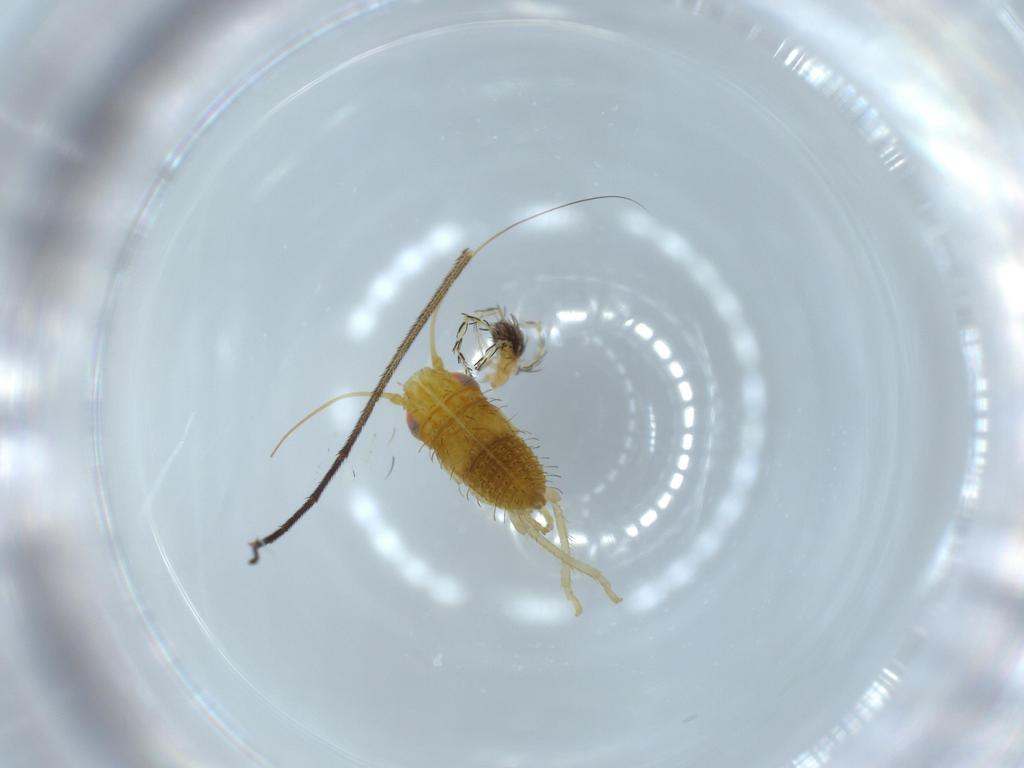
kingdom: Animalia
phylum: Arthropoda
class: Arachnida
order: Trombidiformes
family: Erythraeidae
